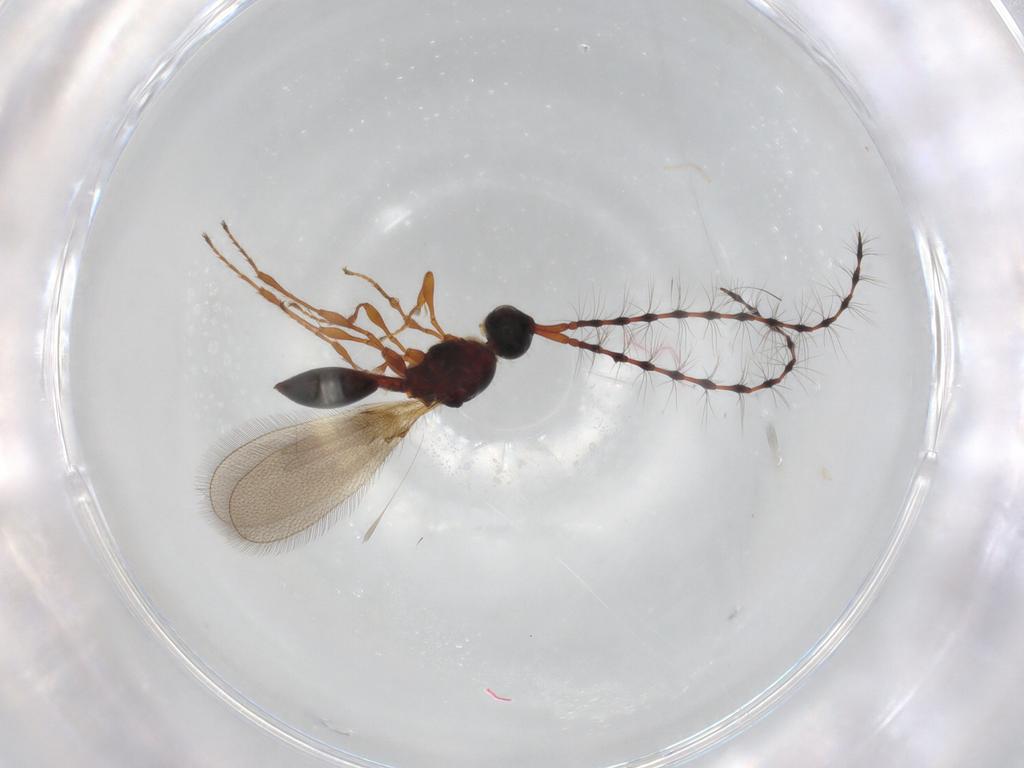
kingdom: Animalia
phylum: Arthropoda
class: Insecta
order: Hymenoptera
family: Diapriidae
